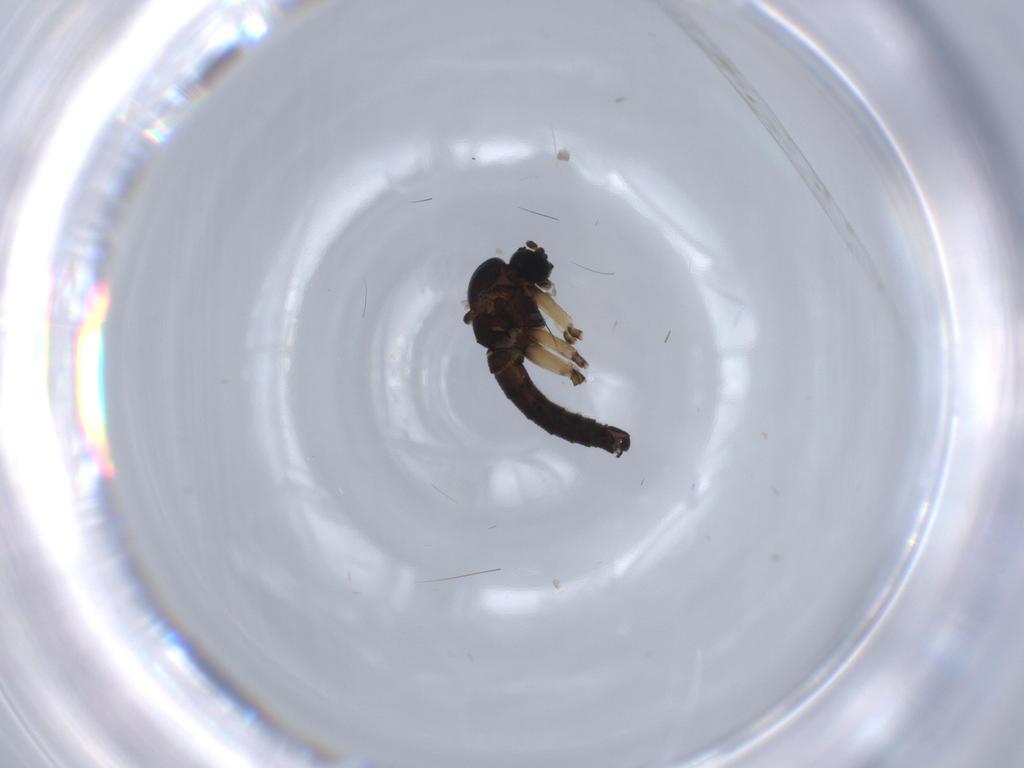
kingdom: Animalia
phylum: Arthropoda
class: Insecta
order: Diptera
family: Sciaridae
